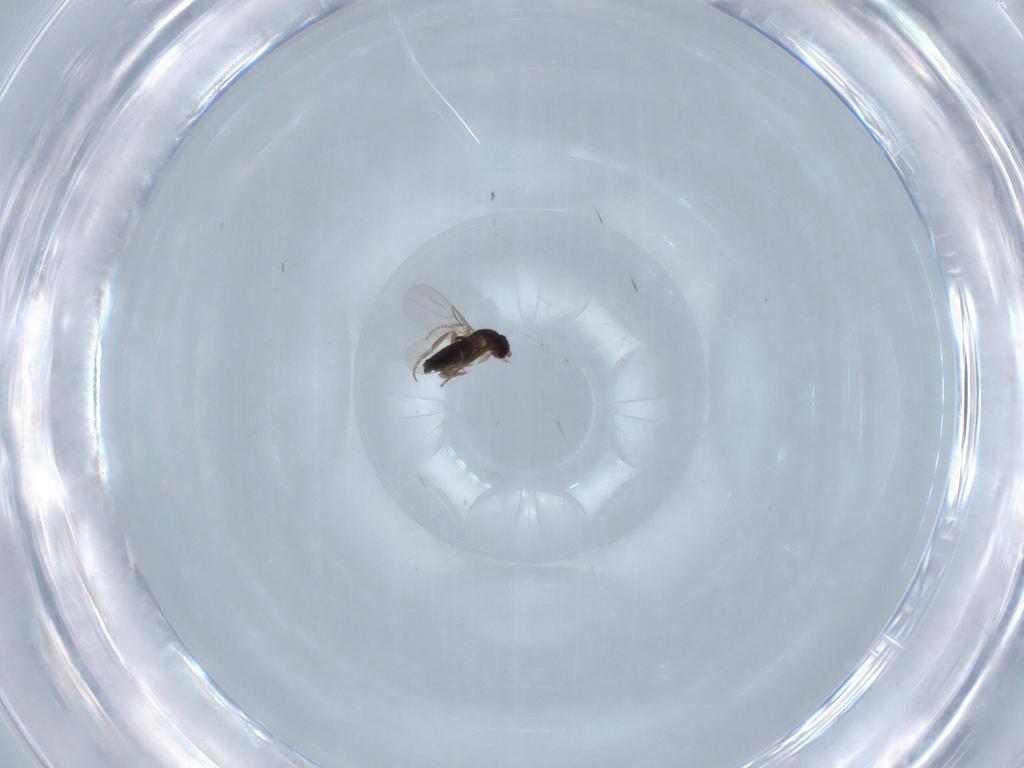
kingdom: Animalia
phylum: Arthropoda
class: Insecta
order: Diptera
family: Phoridae
